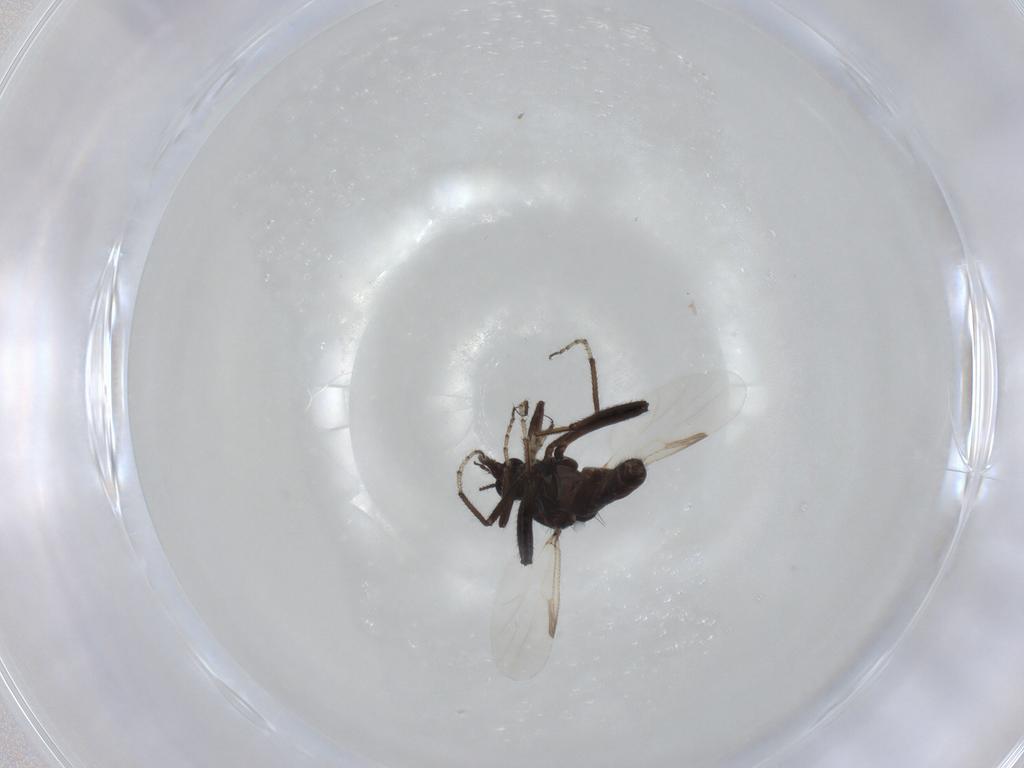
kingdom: Animalia
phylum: Arthropoda
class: Insecta
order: Diptera
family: Ceratopogonidae
